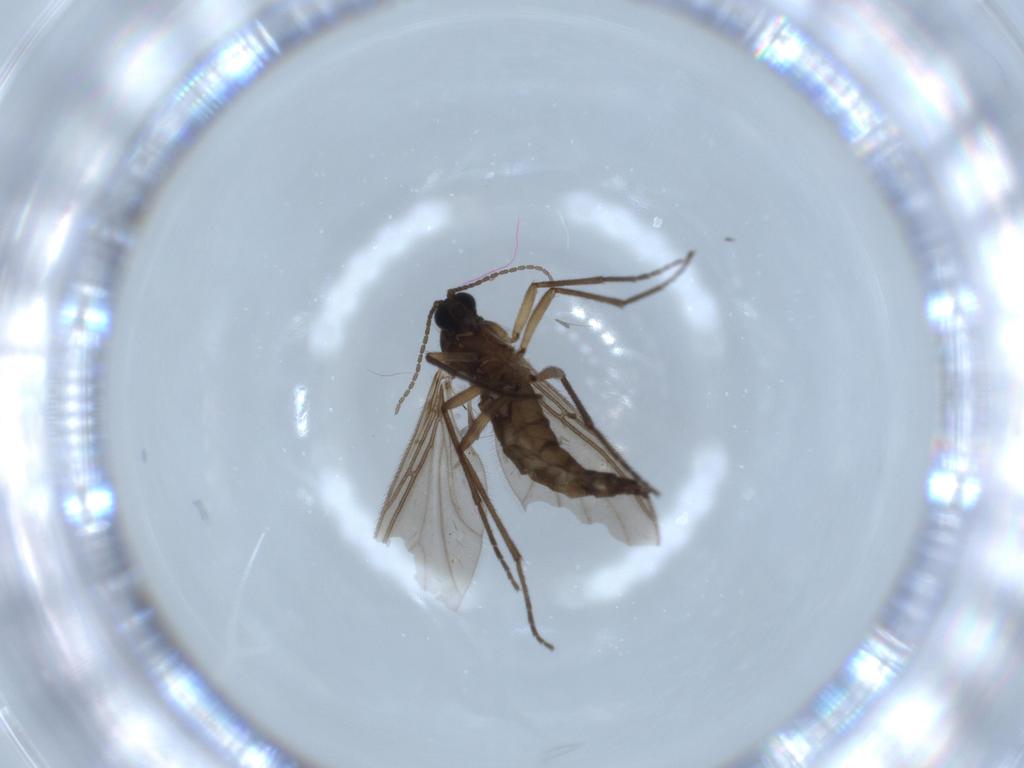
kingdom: Animalia
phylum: Arthropoda
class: Insecta
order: Diptera
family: Sciaridae
